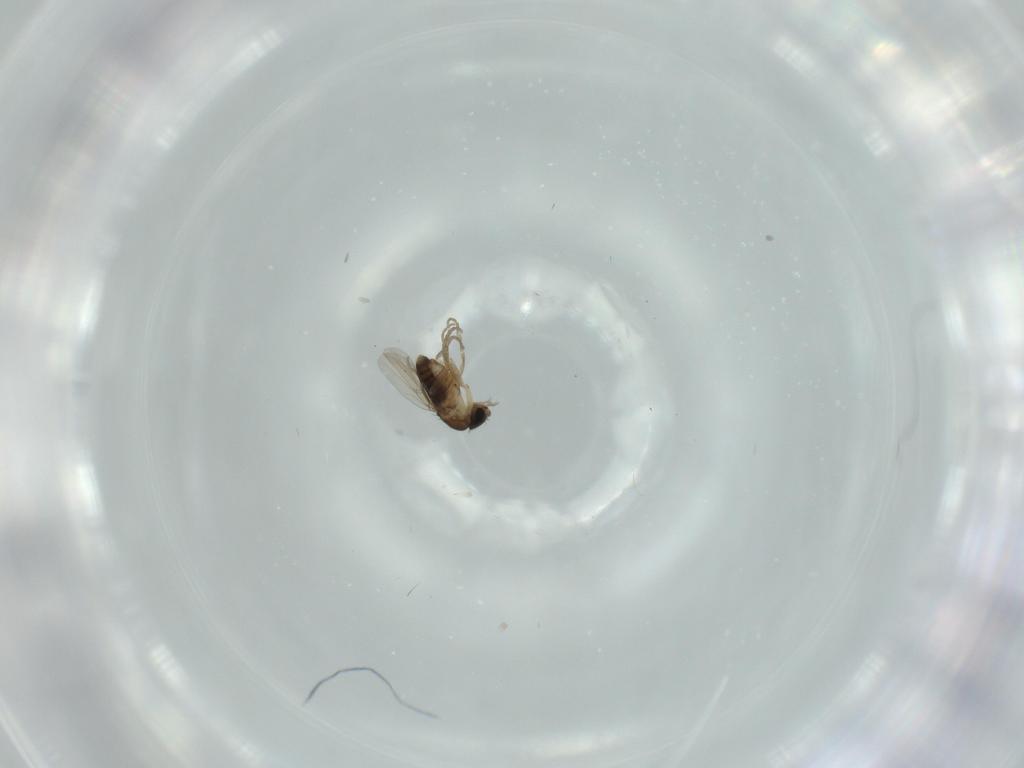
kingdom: Animalia
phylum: Arthropoda
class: Insecta
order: Diptera
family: Phoridae
